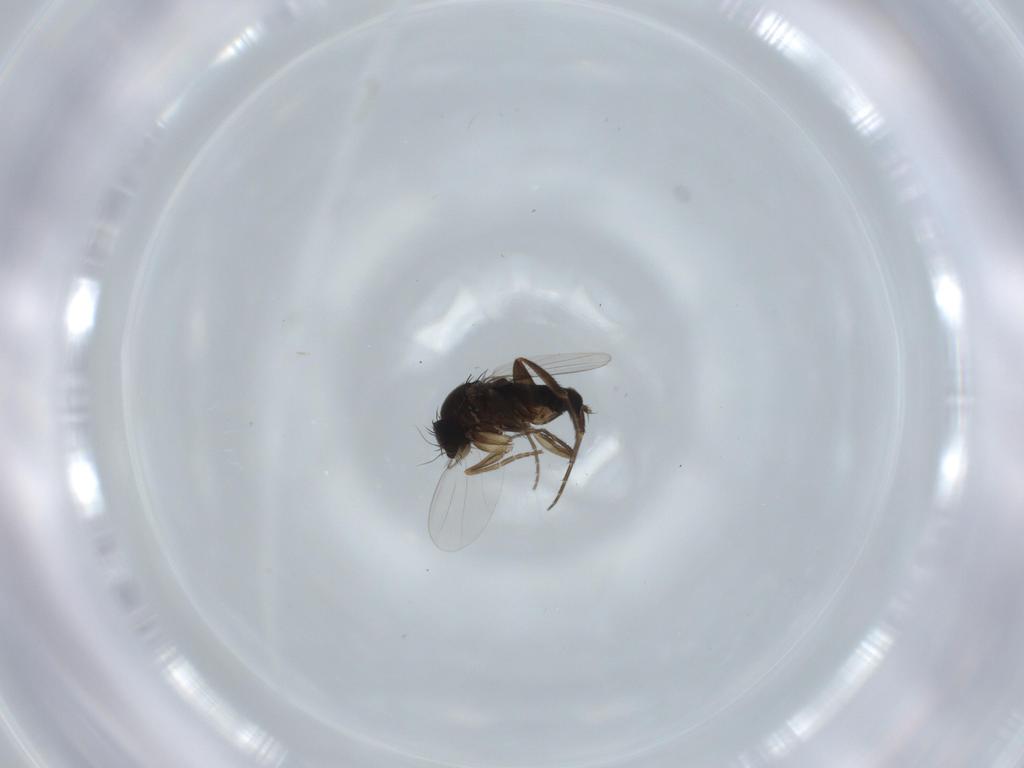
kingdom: Animalia
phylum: Arthropoda
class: Insecta
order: Diptera
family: Phoridae
